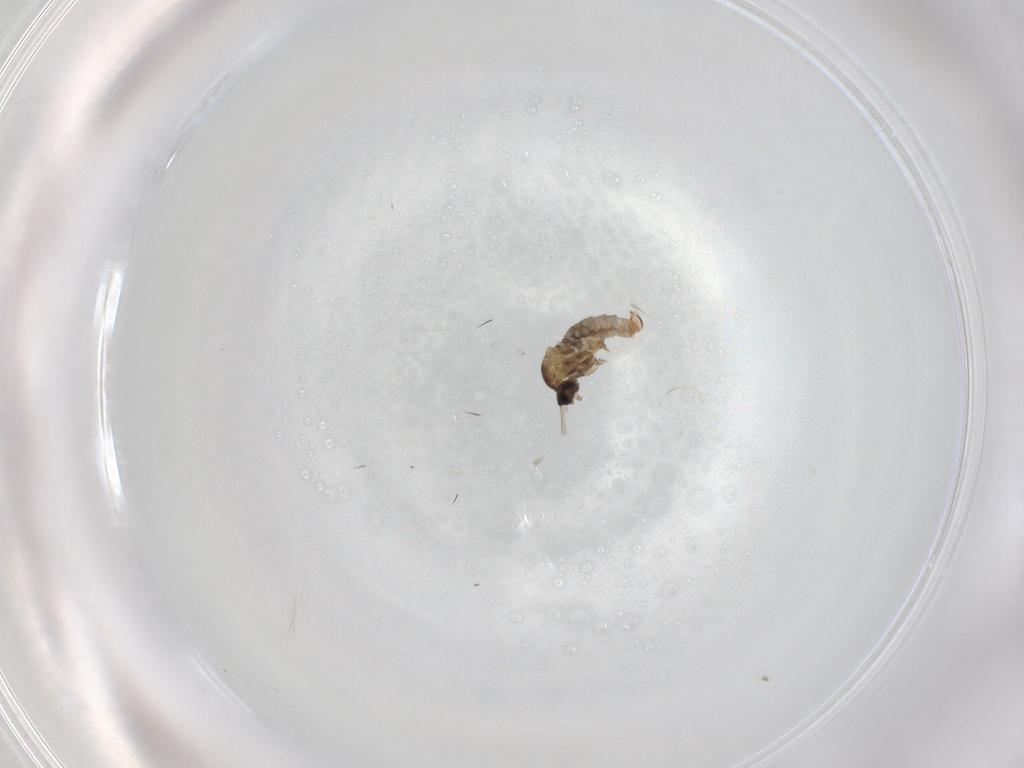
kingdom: Animalia
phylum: Arthropoda
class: Insecta
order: Diptera
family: Cecidomyiidae
